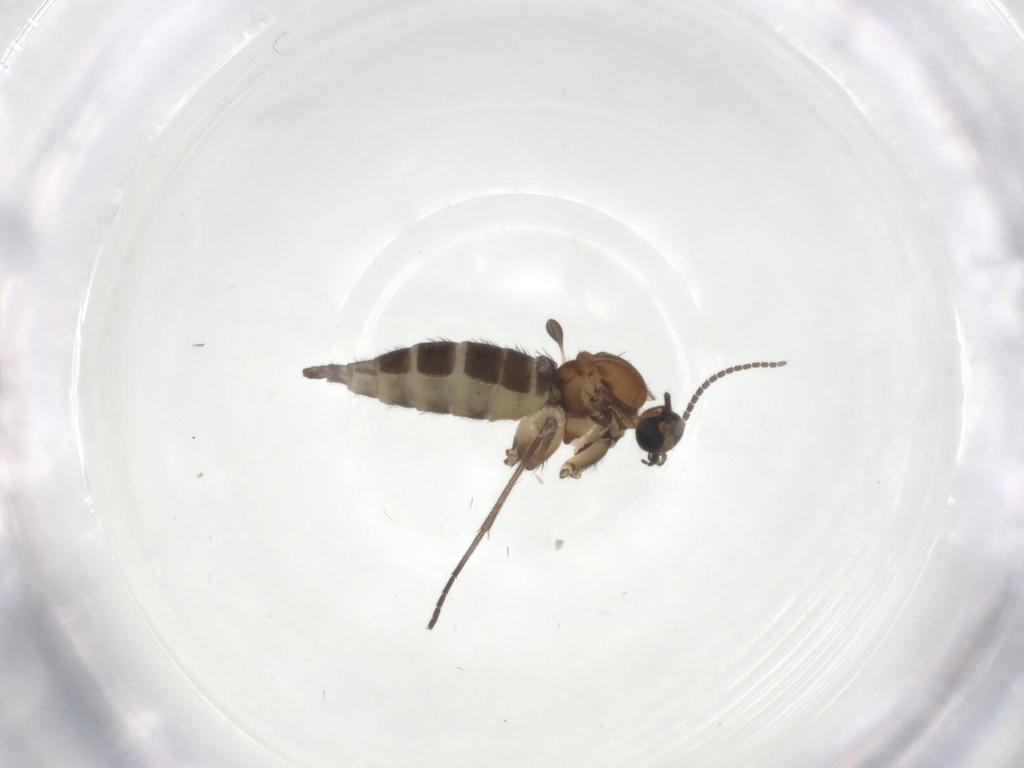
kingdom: Animalia
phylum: Arthropoda
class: Insecta
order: Diptera
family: Sciaridae
